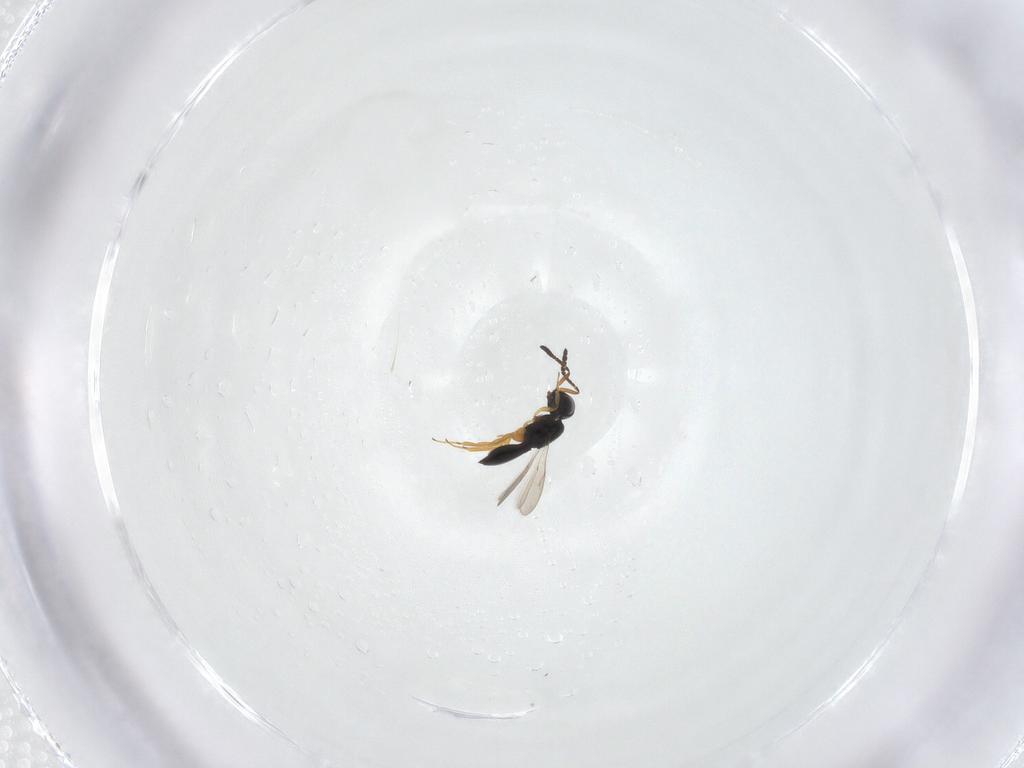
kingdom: Animalia
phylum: Arthropoda
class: Insecta
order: Hymenoptera
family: Scelionidae
